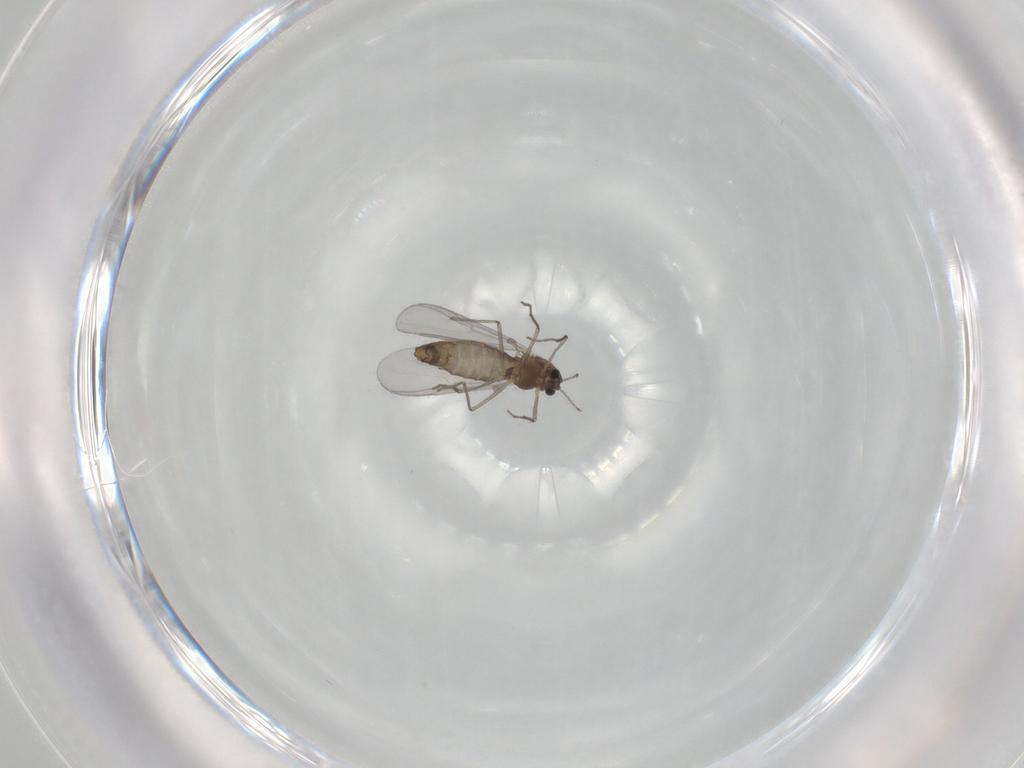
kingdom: Animalia
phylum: Arthropoda
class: Insecta
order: Diptera
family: Chironomidae
